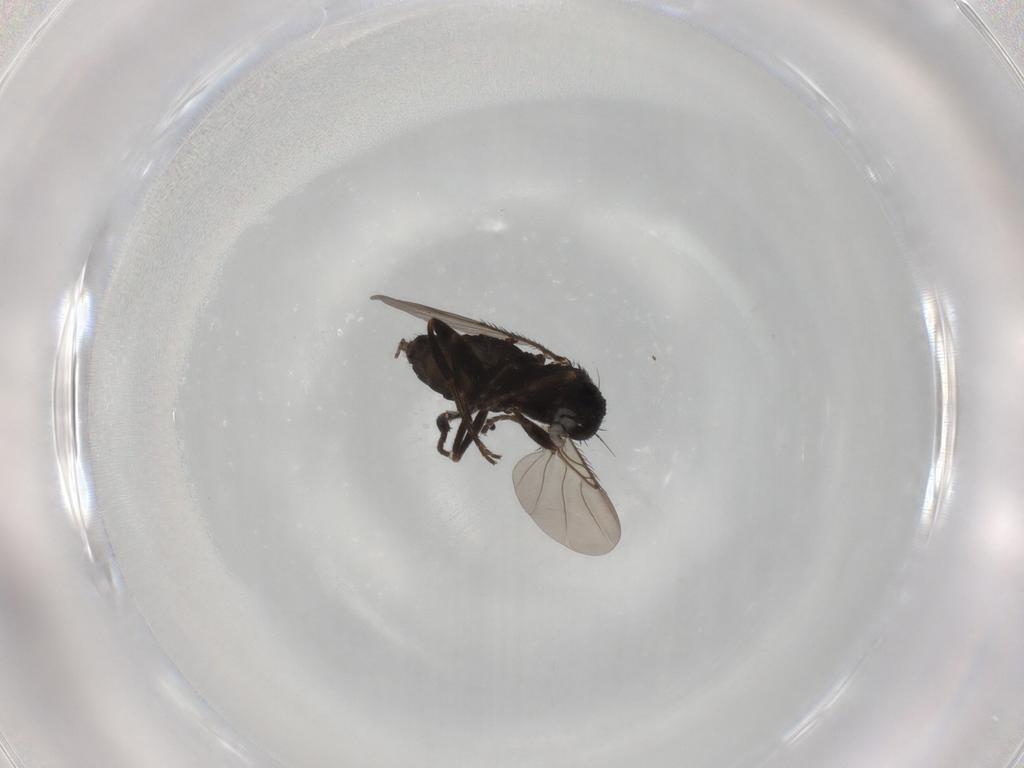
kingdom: Animalia
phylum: Arthropoda
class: Insecta
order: Diptera
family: Phoridae
